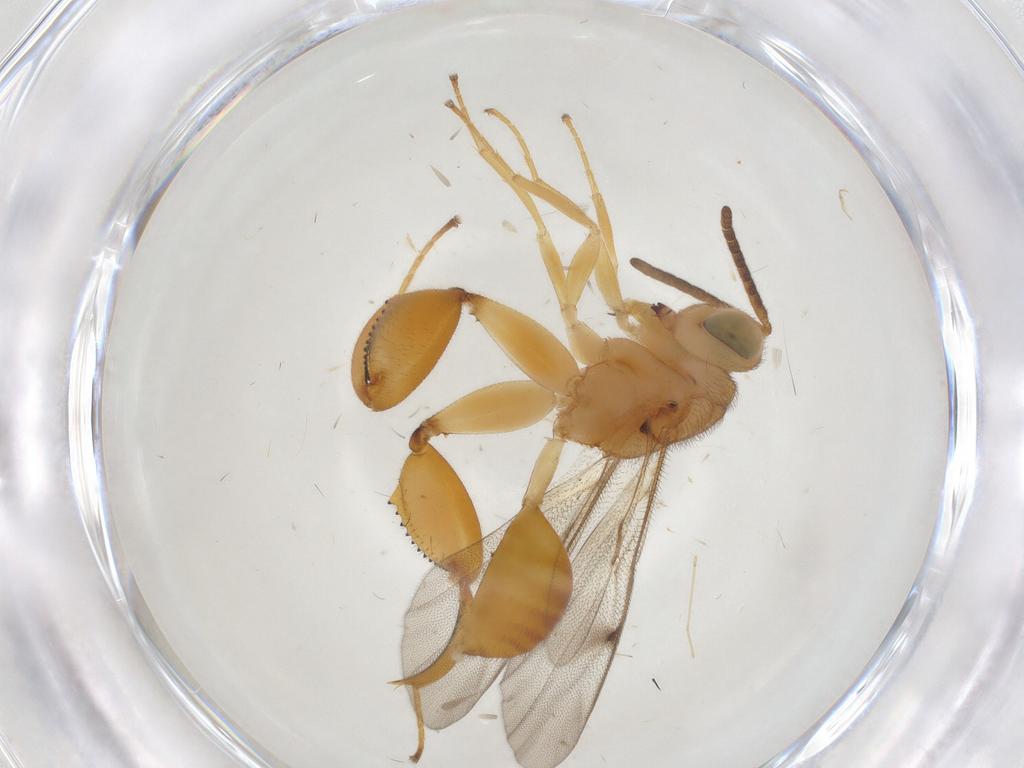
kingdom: Animalia
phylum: Arthropoda
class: Insecta
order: Hymenoptera
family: Chalcididae
